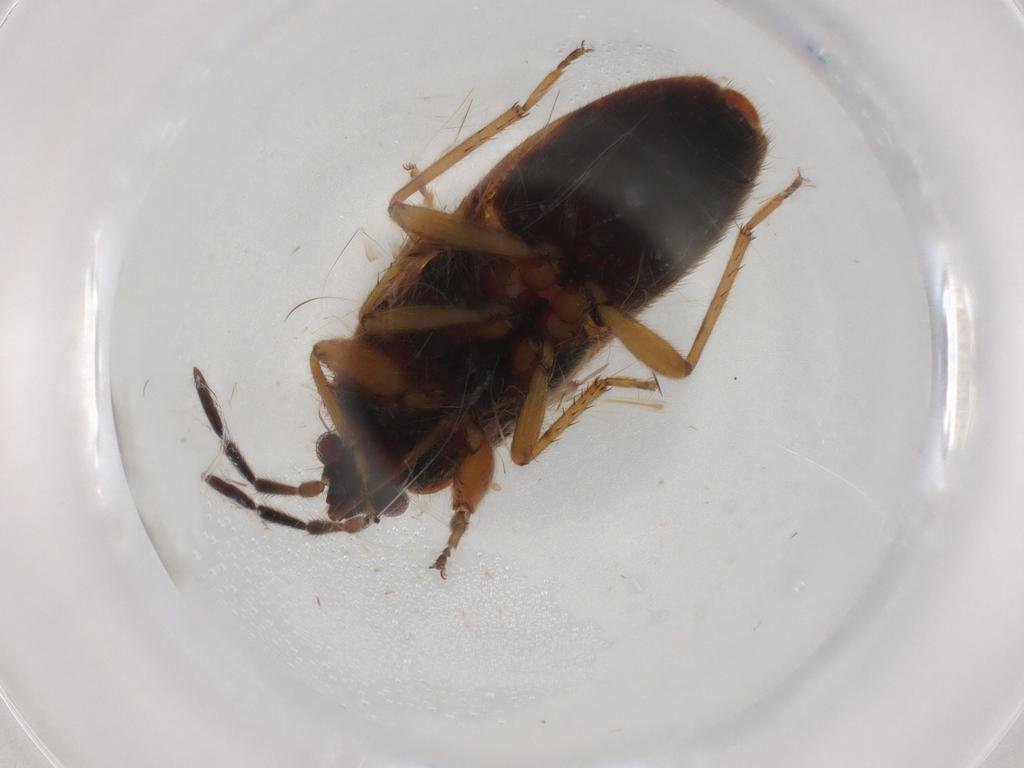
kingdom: Animalia
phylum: Arthropoda
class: Insecta
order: Hemiptera
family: Rhyparochromidae
